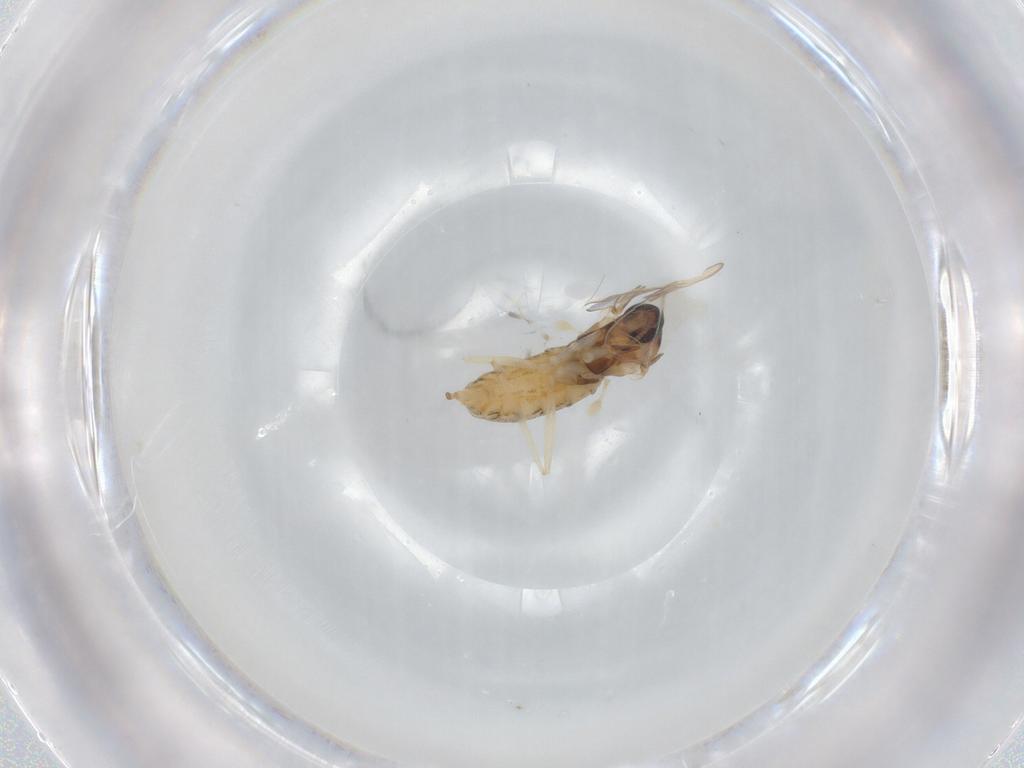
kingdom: Animalia
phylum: Arthropoda
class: Insecta
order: Diptera
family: Cecidomyiidae
